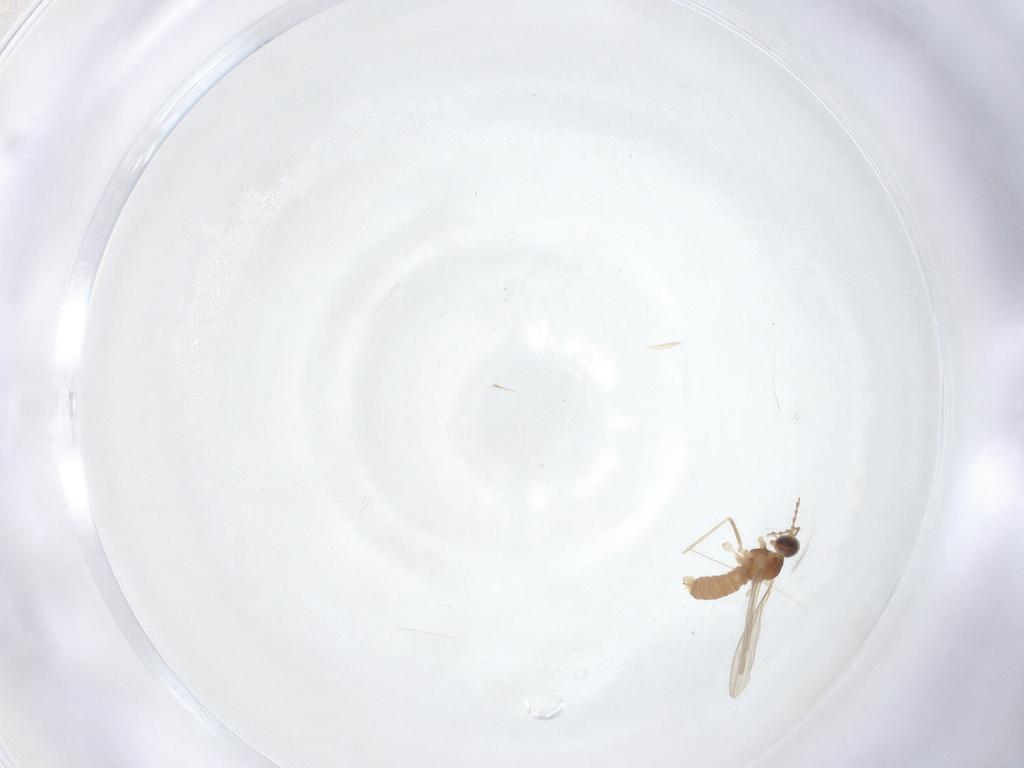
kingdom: Animalia
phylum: Arthropoda
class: Insecta
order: Diptera
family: Cecidomyiidae
